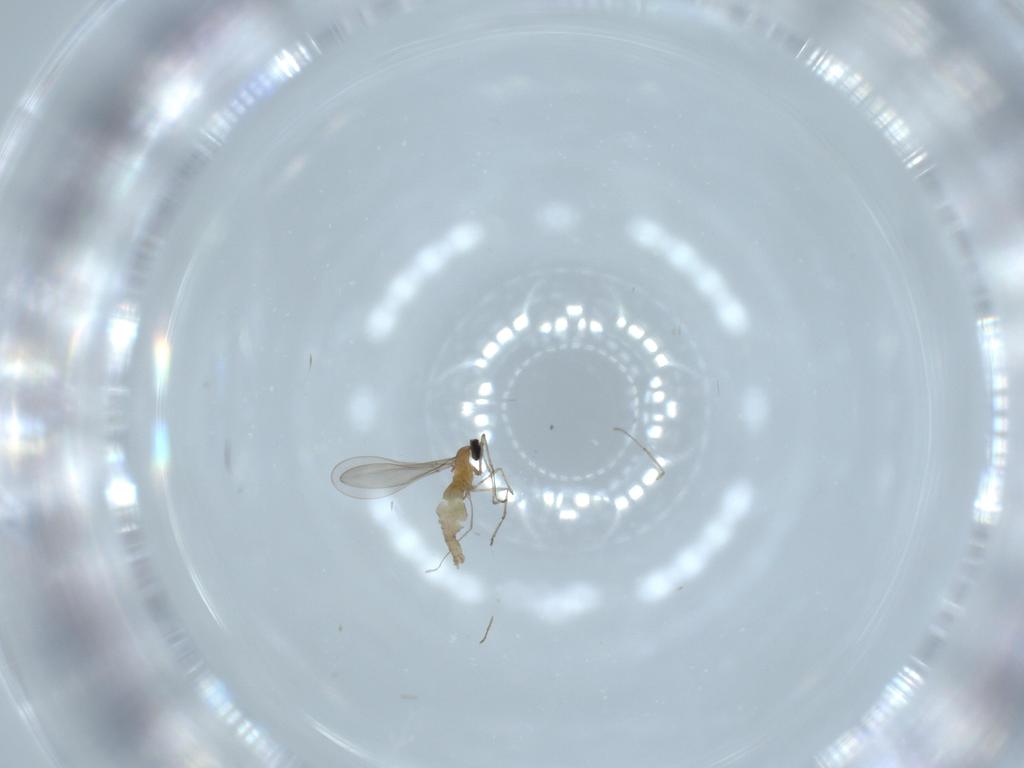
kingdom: Animalia
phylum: Arthropoda
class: Insecta
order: Diptera
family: Cecidomyiidae
